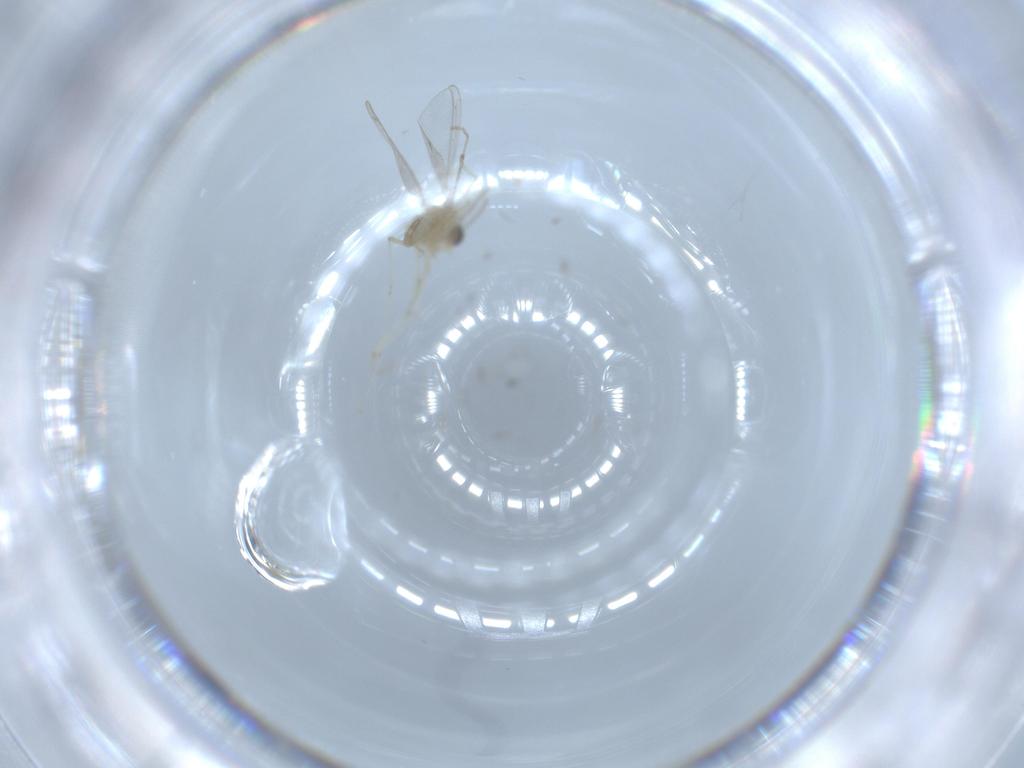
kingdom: Animalia
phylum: Arthropoda
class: Insecta
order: Diptera
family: Cecidomyiidae
